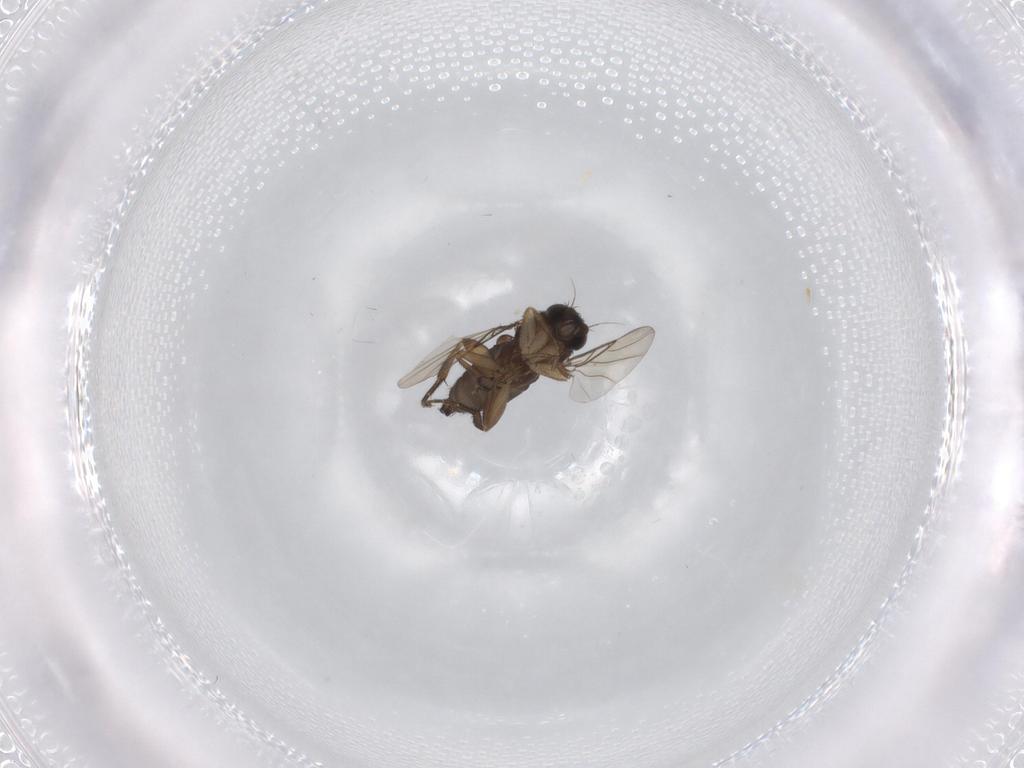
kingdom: Animalia
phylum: Arthropoda
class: Insecta
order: Diptera
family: Phoridae
